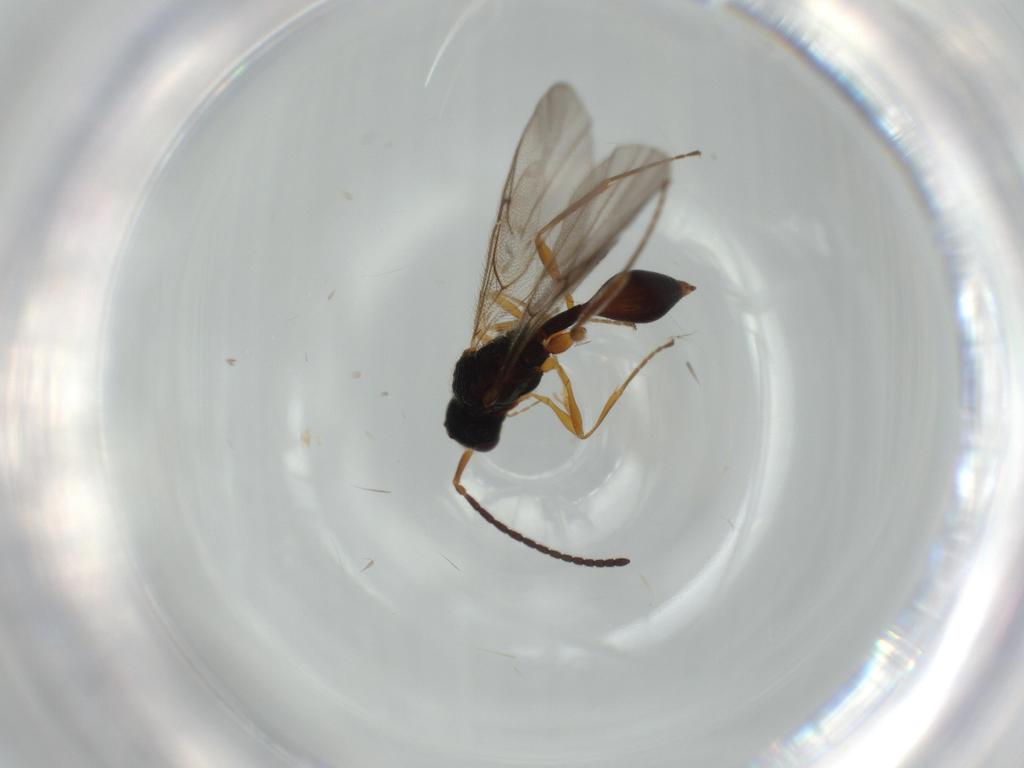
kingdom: Animalia
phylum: Arthropoda
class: Insecta
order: Hymenoptera
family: Diapriidae
